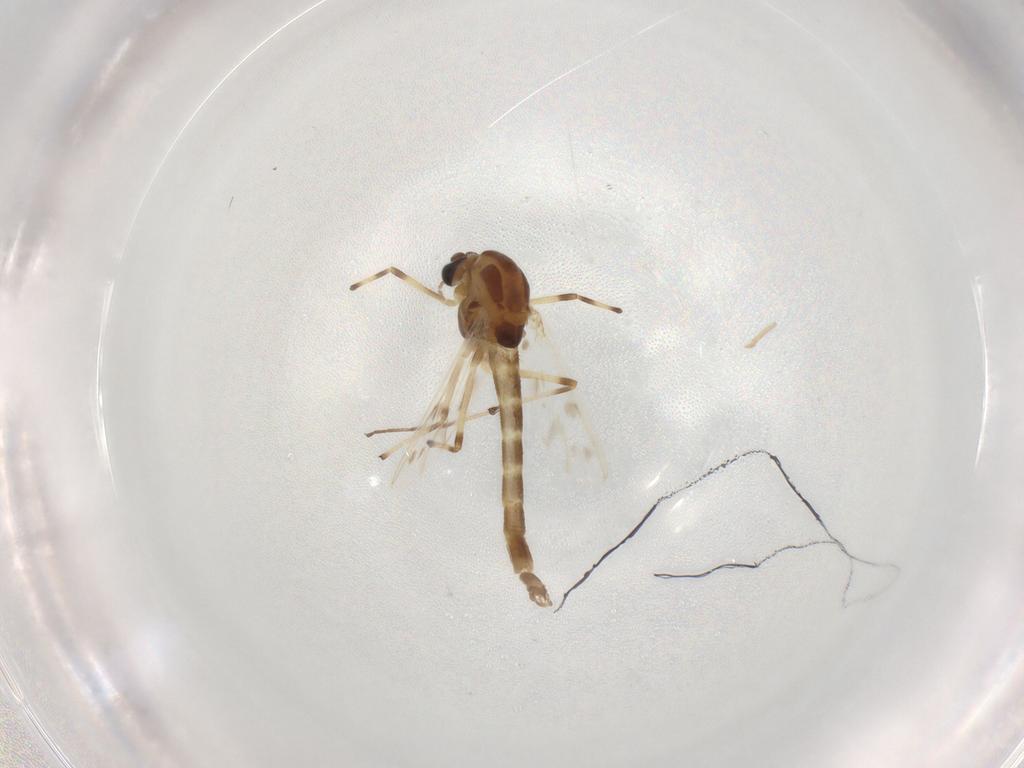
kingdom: Animalia
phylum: Arthropoda
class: Insecta
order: Diptera
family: Chironomidae
